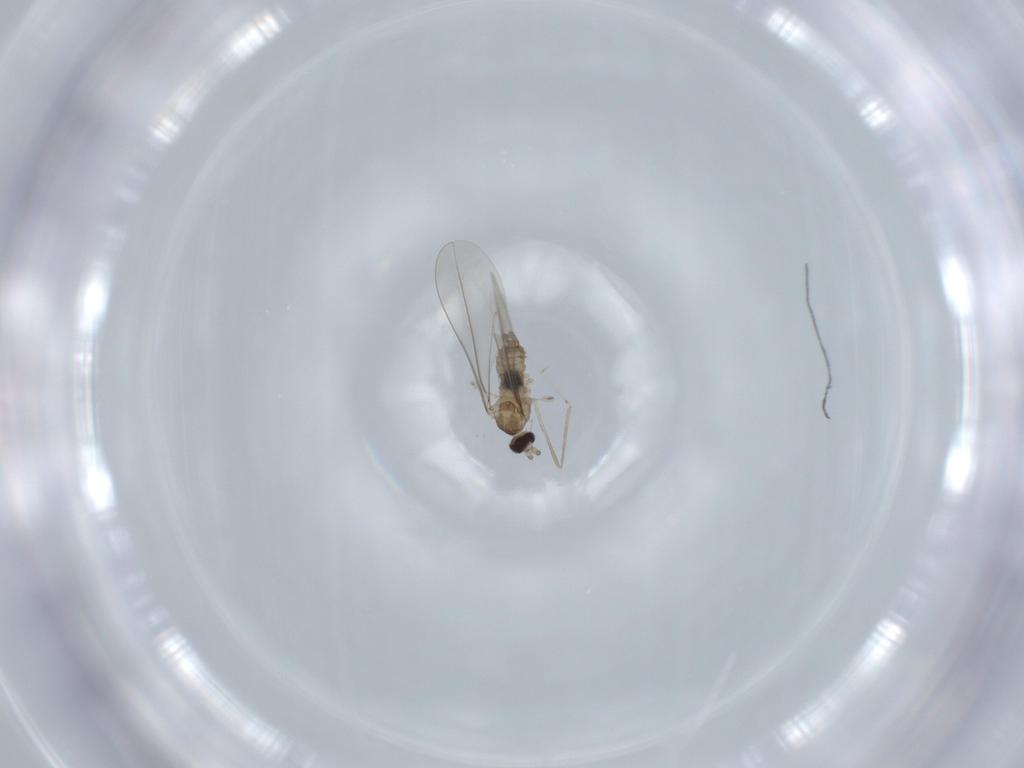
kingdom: Animalia
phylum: Arthropoda
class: Insecta
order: Diptera
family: Cecidomyiidae
